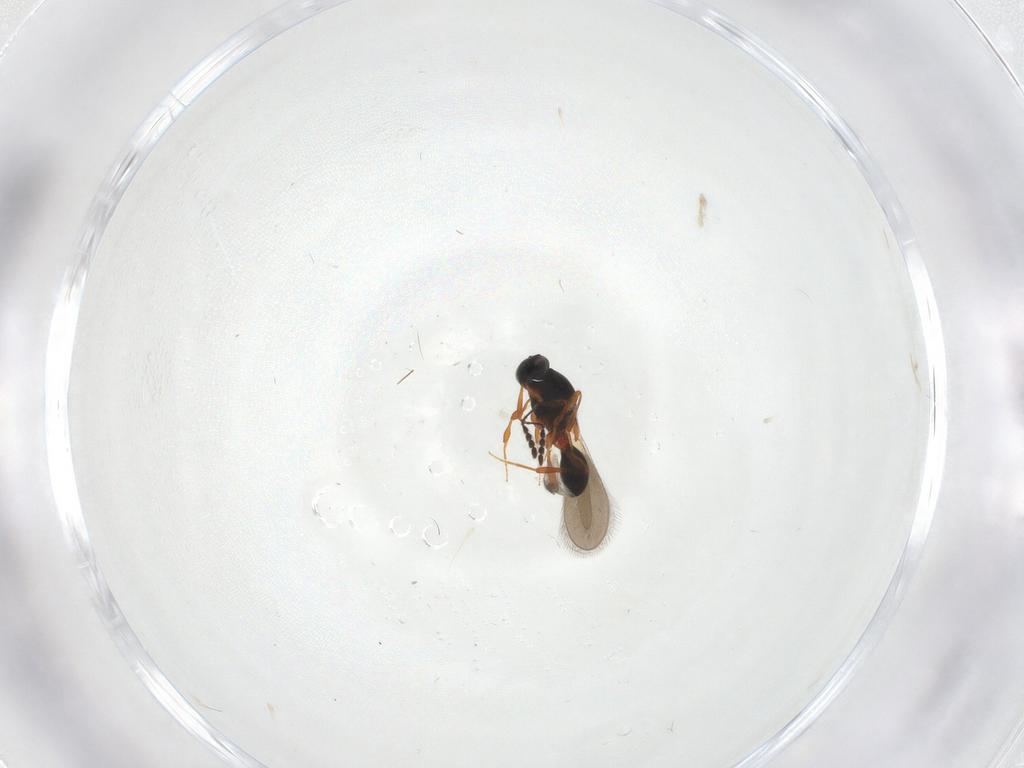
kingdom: Animalia
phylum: Arthropoda
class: Insecta
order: Hymenoptera
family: Platygastridae
